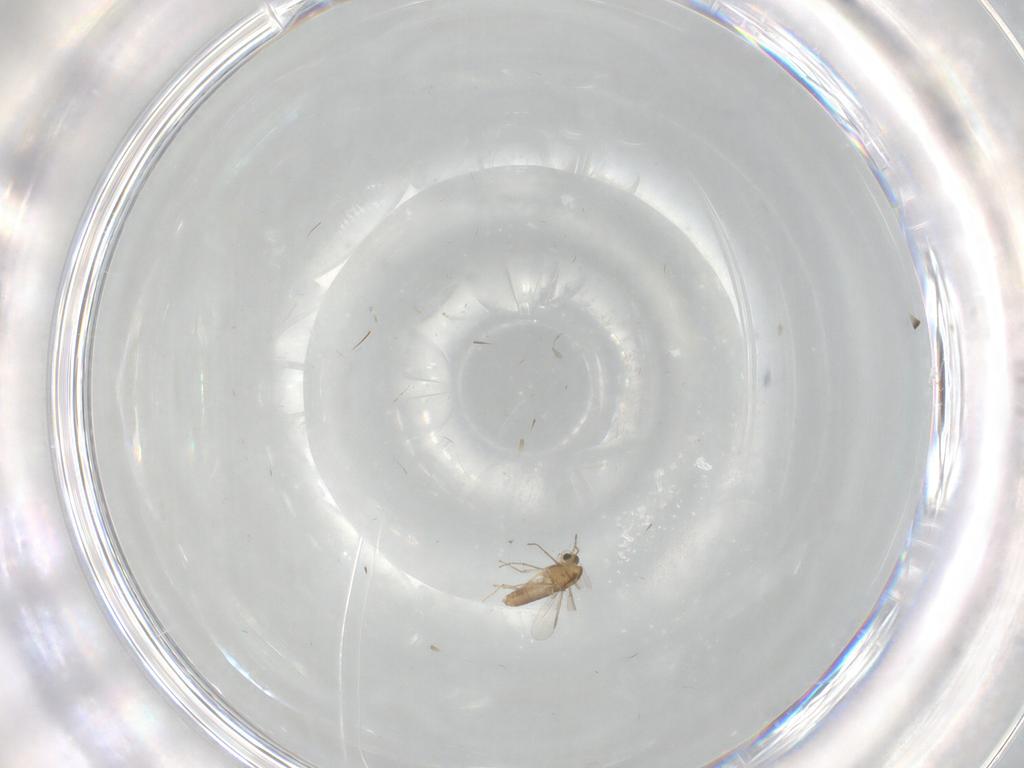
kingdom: Animalia
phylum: Arthropoda
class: Insecta
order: Diptera
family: Chironomidae
